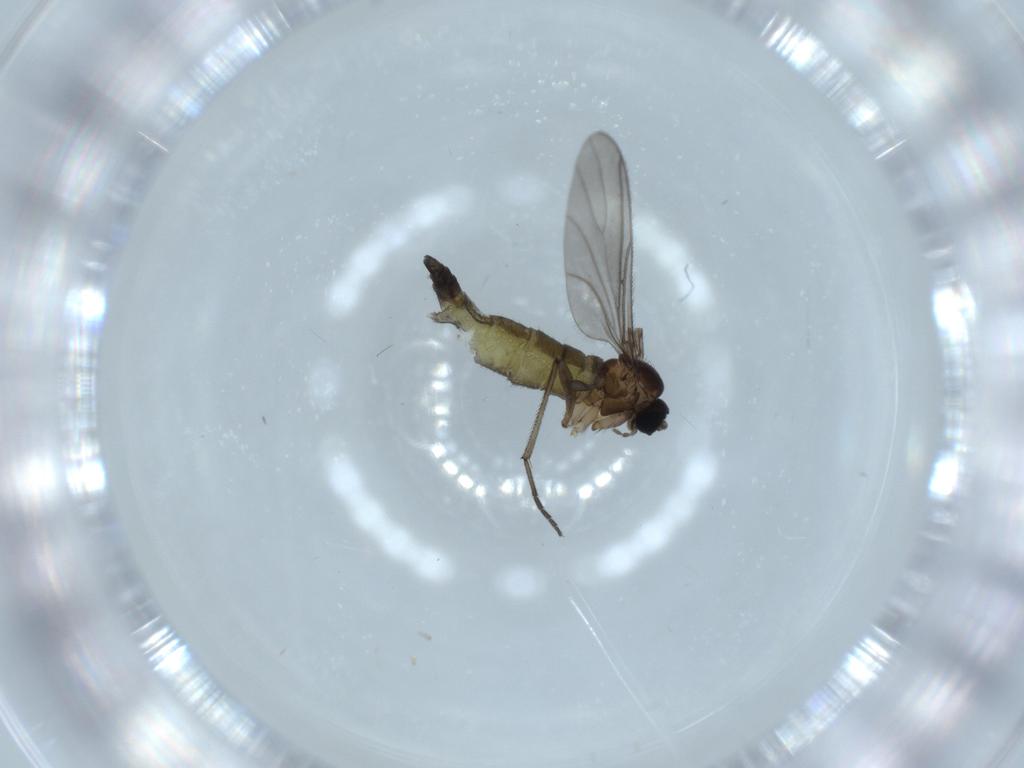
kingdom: Animalia
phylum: Arthropoda
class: Insecta
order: Diptera
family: Sciaridae
